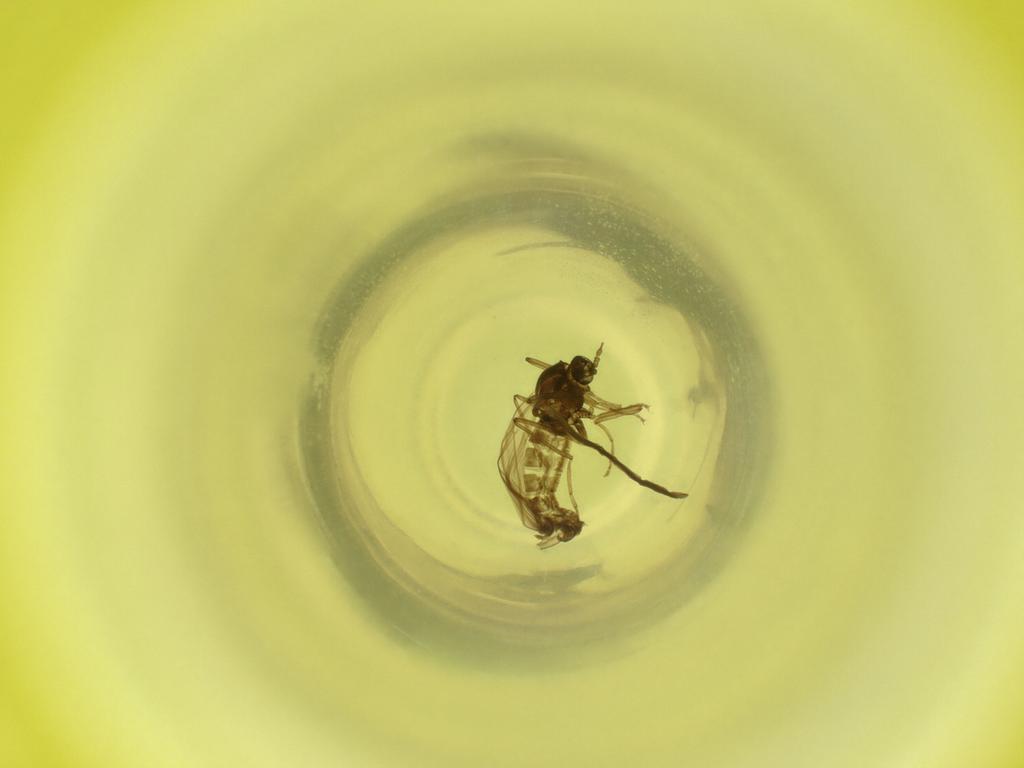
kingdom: Animalia
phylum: Arthropoda
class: Insecta
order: Diptera
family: Cecidomyiidae
